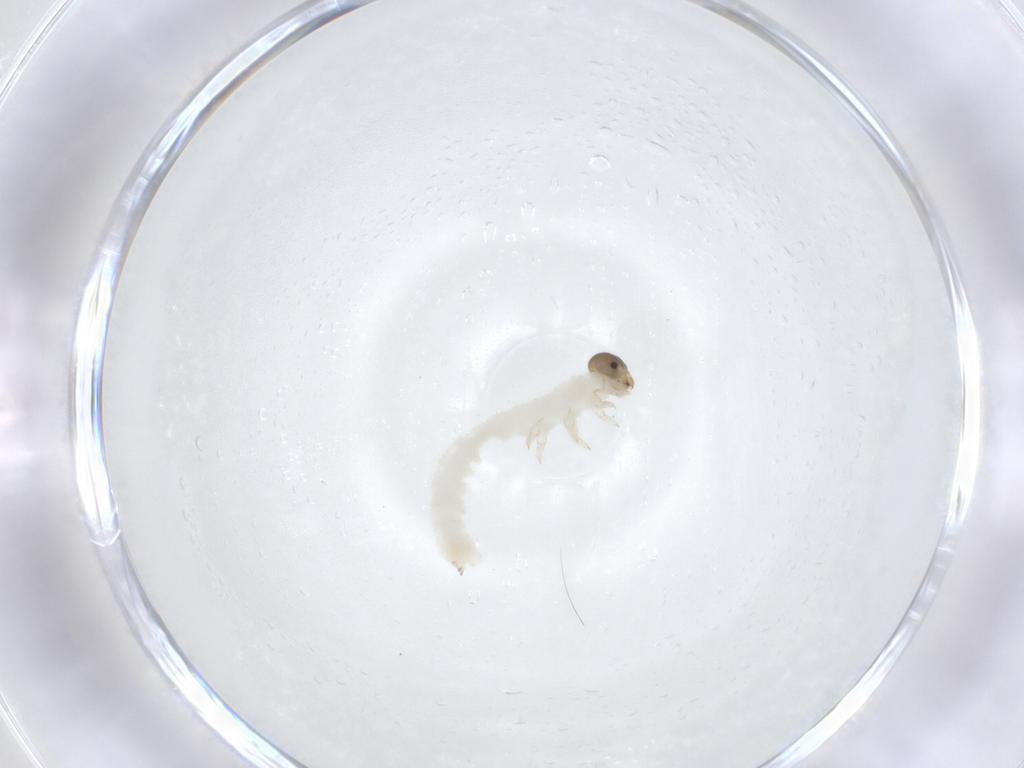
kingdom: Animalia
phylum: Arthropoda
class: Insecta
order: Hymenoptera
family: Tenthredinidae
